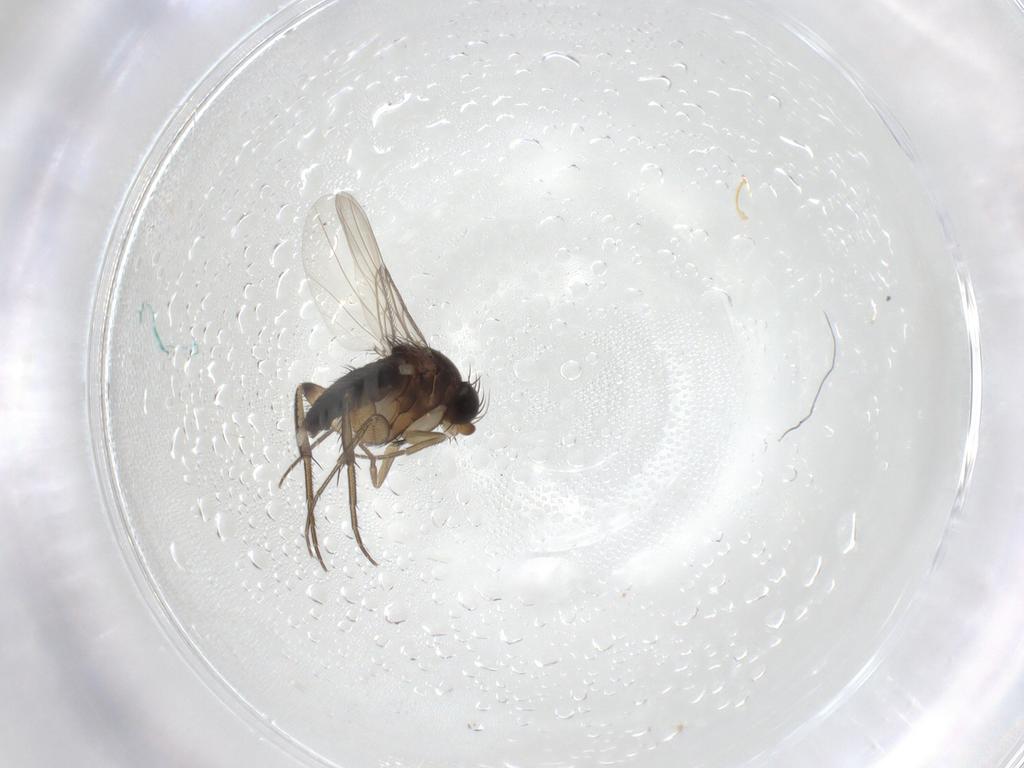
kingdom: Animalia
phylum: Arthropoda
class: Insecta
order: Diptera
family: Phoridae
